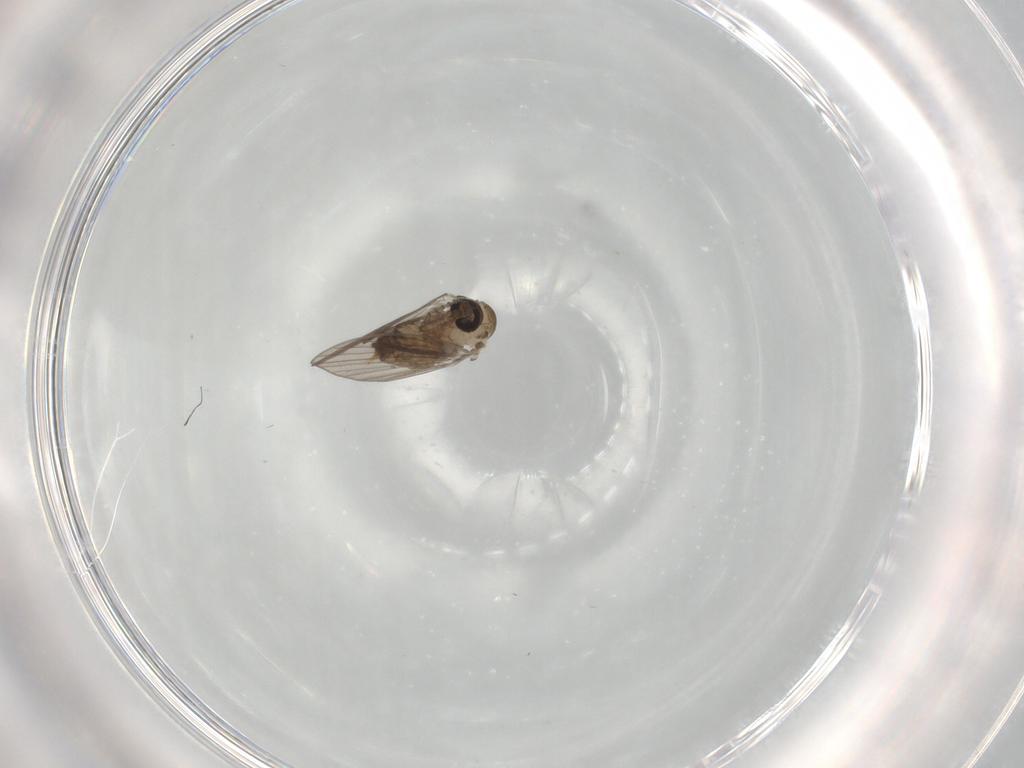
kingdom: Animalia
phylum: Arthropoda
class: Insecta
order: Diptera
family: Psychodidae
